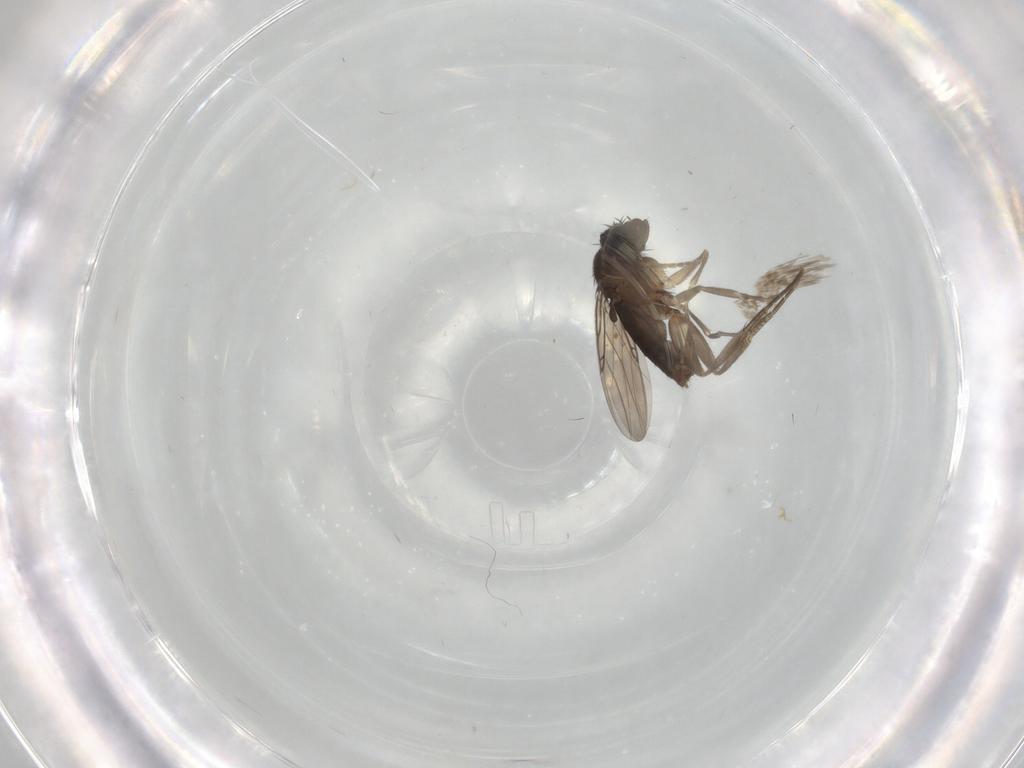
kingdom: Animalia
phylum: Arthropoda
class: Insecta
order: Diptera
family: Phoridae
